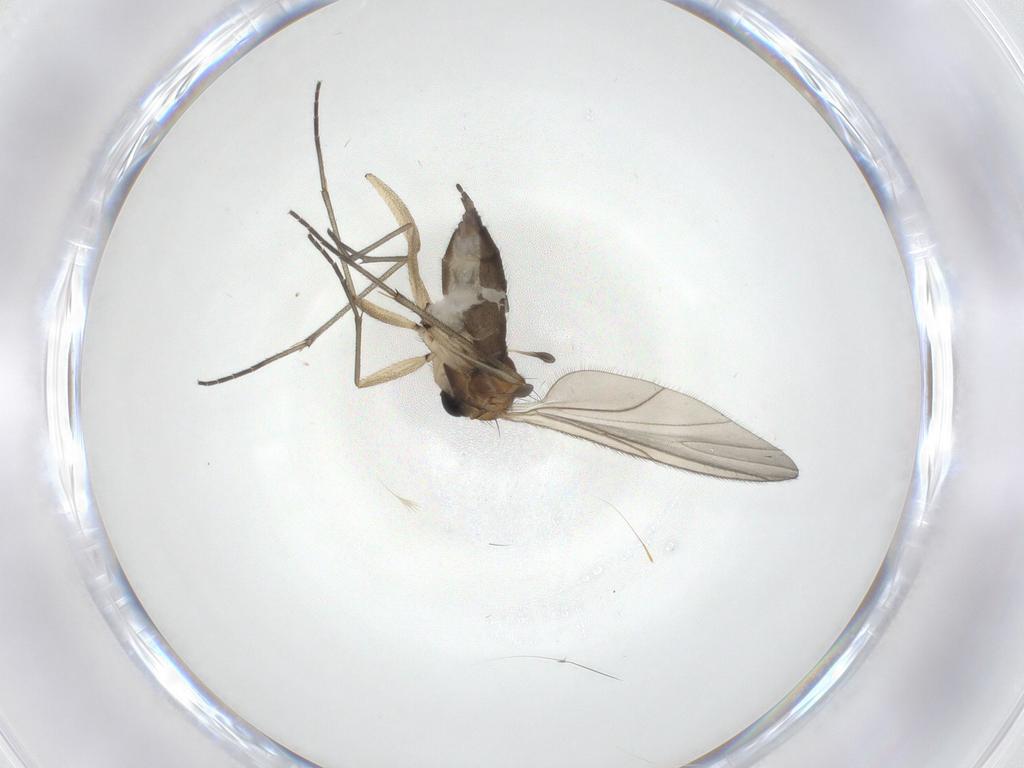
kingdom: Animalia
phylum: Arthropoda
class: Insecta
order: Diptera
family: Sciaridae
